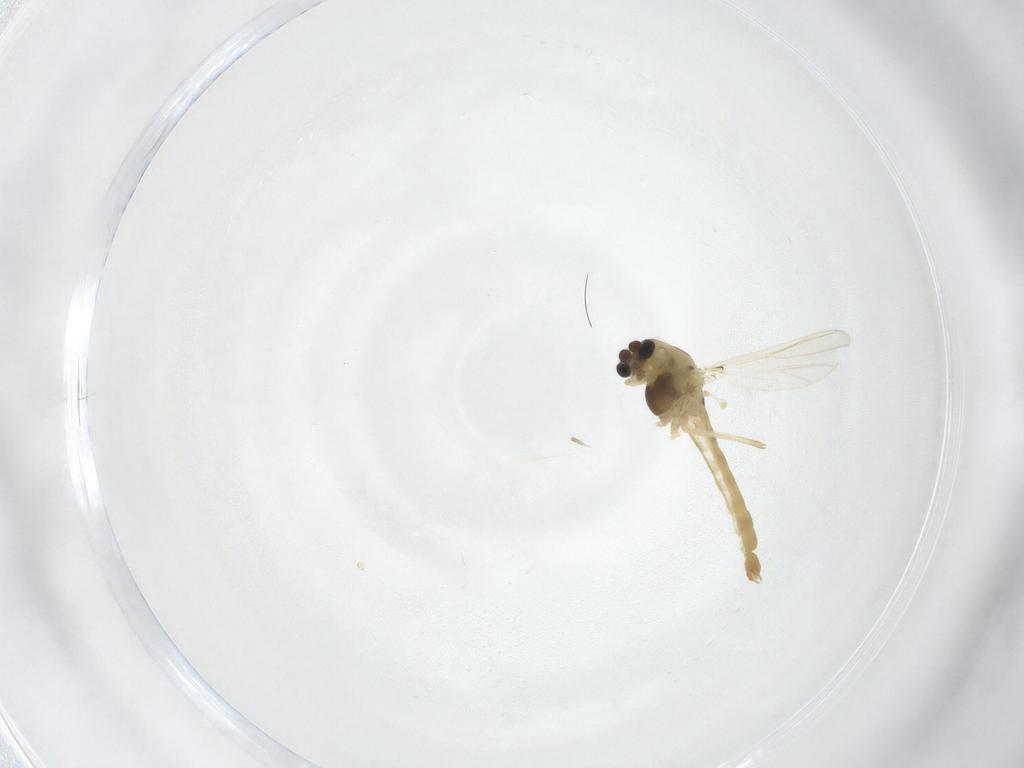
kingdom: Animalia
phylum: Arthropoda
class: Insecta
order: Diptera
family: Chironomidae
